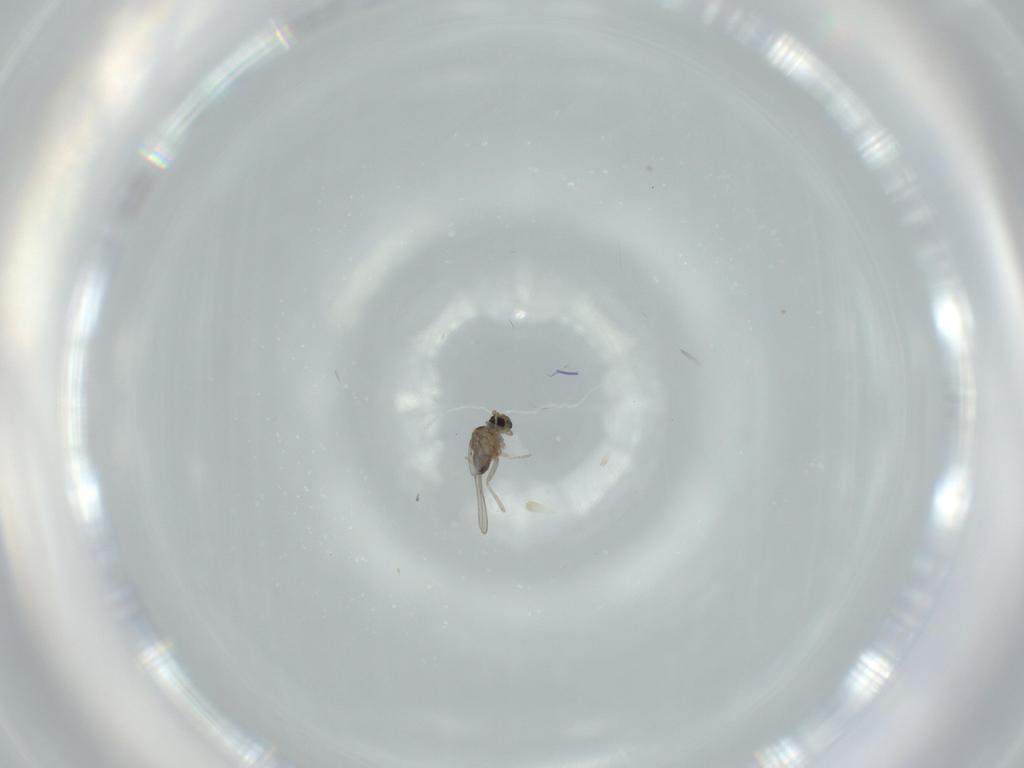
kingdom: Animalia
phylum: Arthropoda
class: Insecta
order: Diptera
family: Cecidomyiidae
